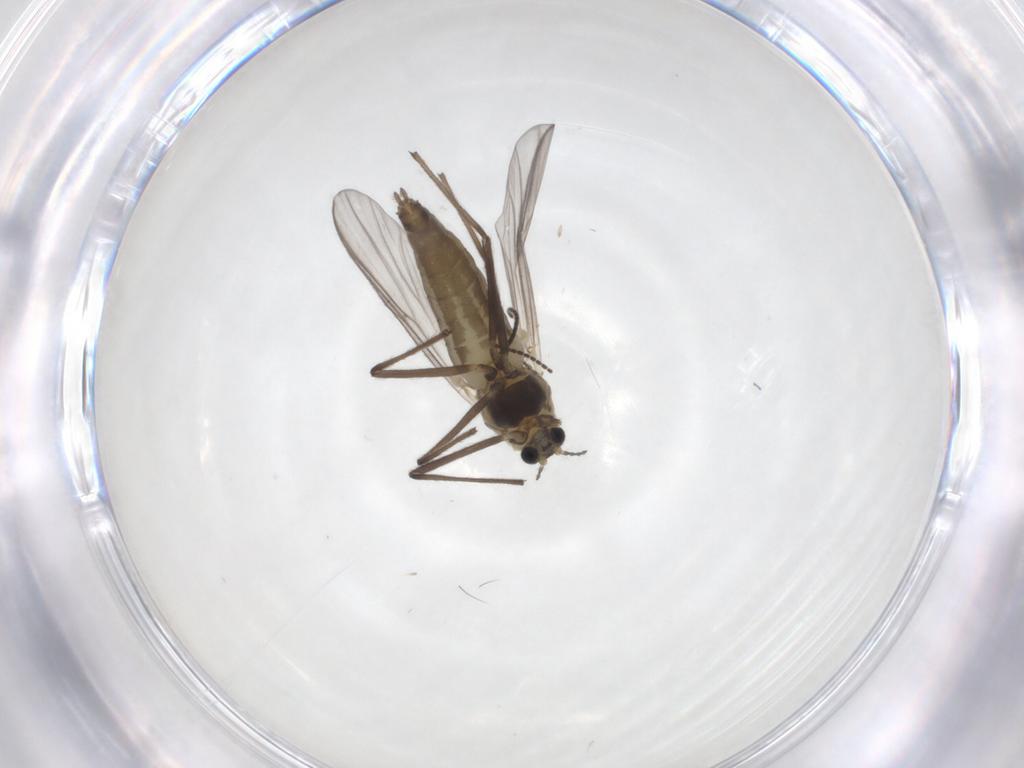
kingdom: Animalia
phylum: Arthropoda
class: Insecta
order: Diptera
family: Chironomidae
